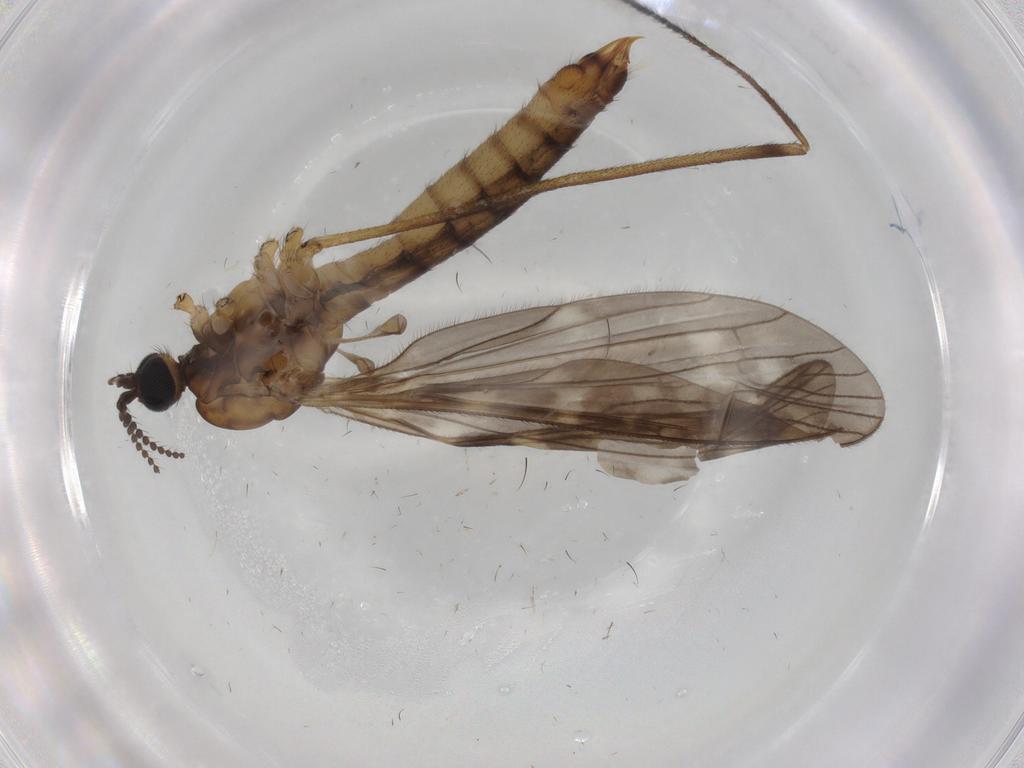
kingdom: Animalia
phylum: Arthropoda
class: Insecta
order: Diptera
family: Limoniidae
